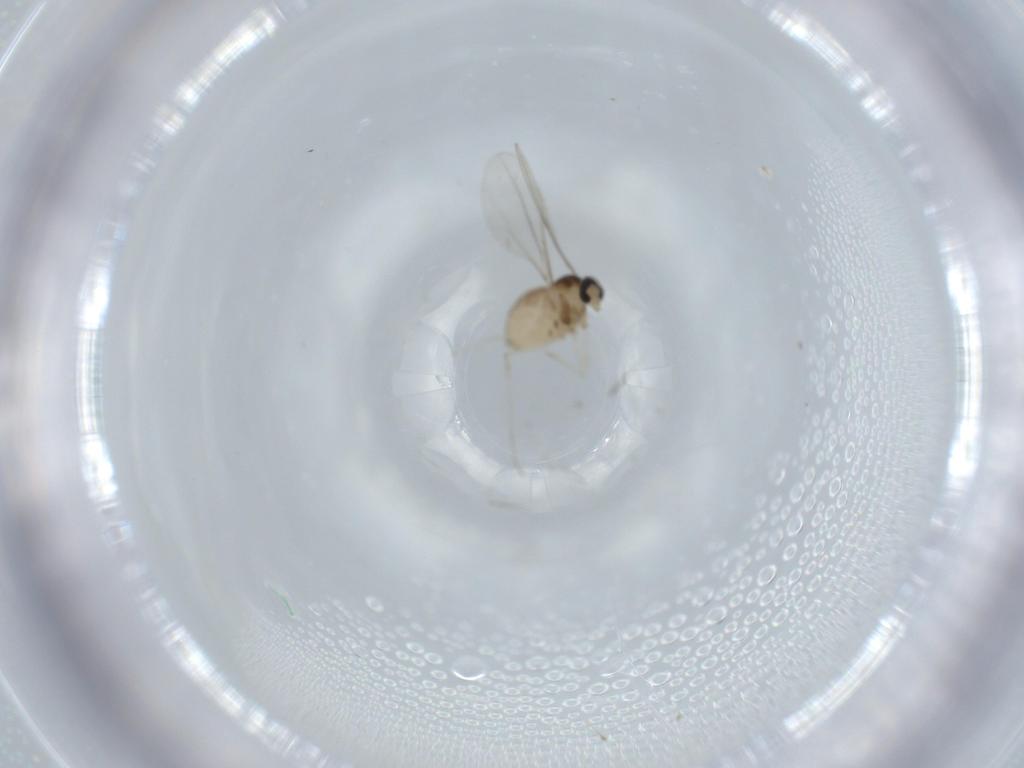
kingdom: Animalia
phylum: Arthropoda
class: Insecta
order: Diptera
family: Cecidomyiidae
